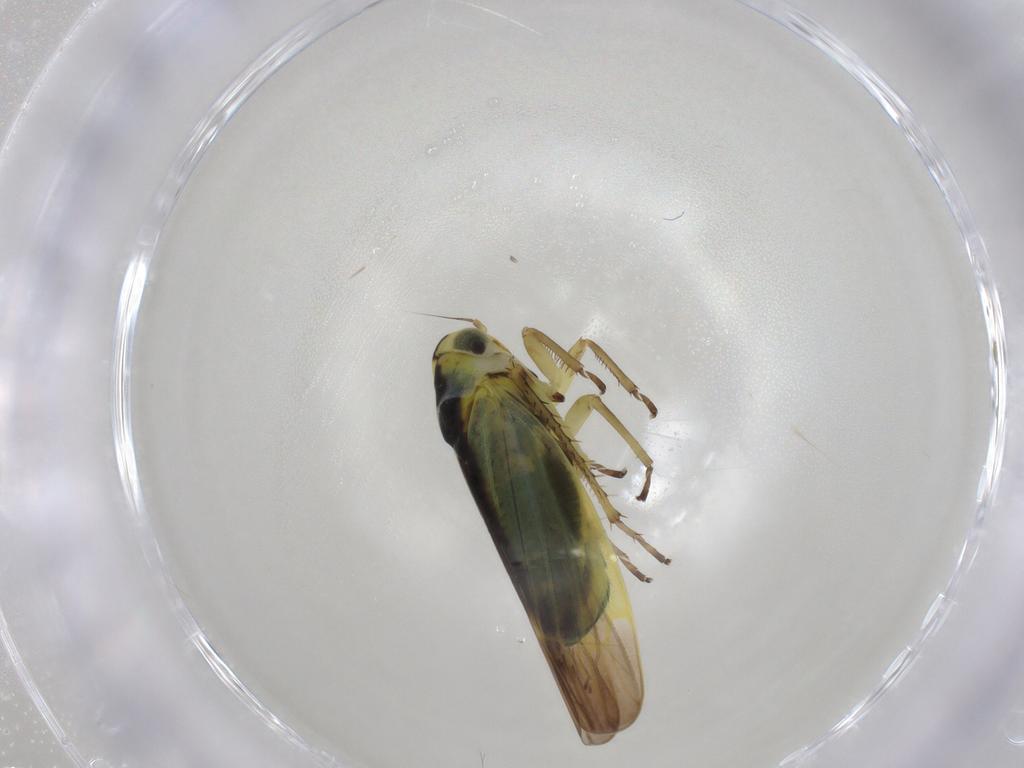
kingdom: Animalia
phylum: Arthropoda
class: Insecta
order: Hemiptera
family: Cicadellidae
